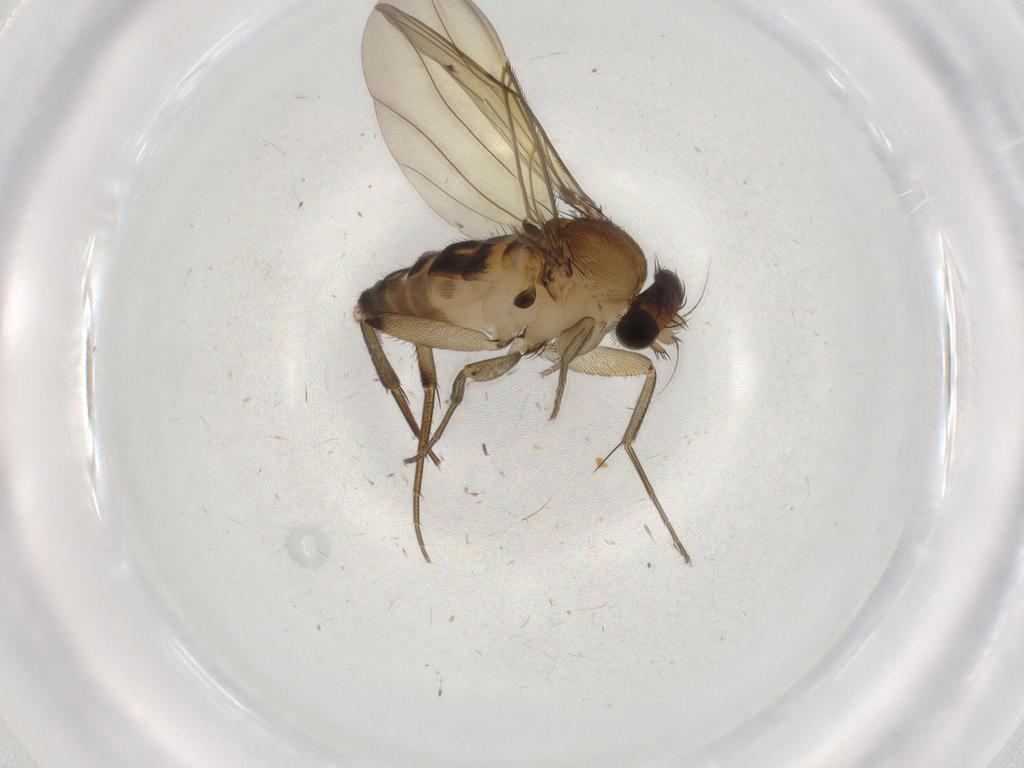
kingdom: Animalia
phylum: Arthropoda
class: Insecta
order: Diptera
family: Chironomidae
